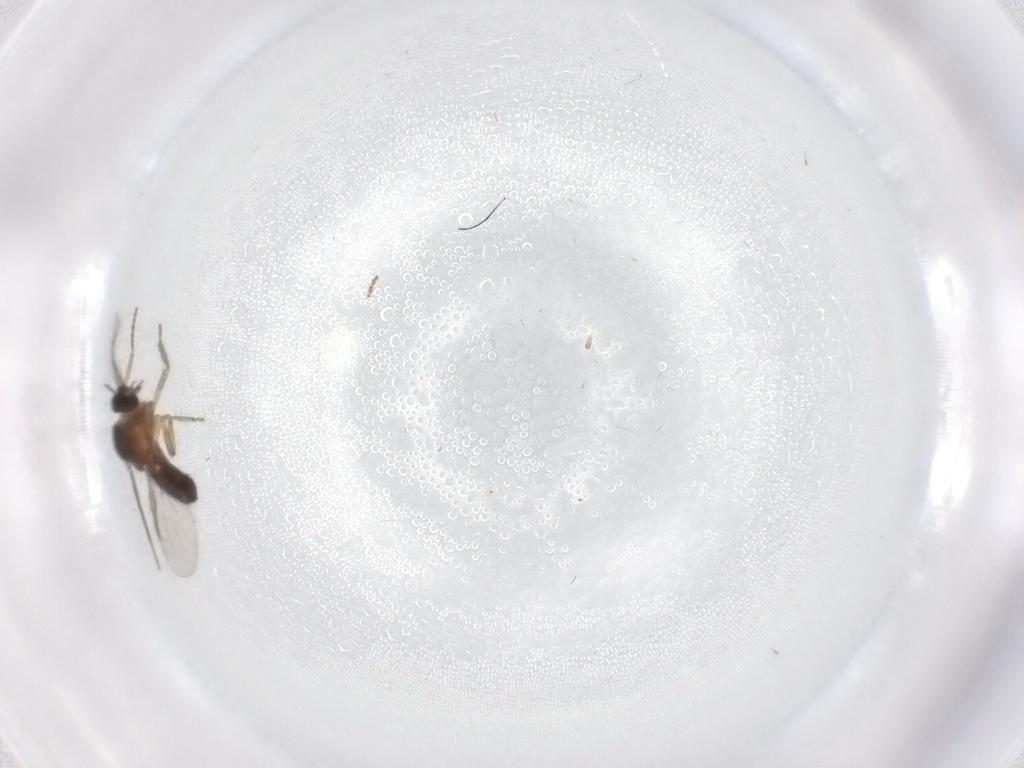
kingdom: Animalia
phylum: Arthropoda
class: Insecta
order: Diptera
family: Ceratopogonidae
